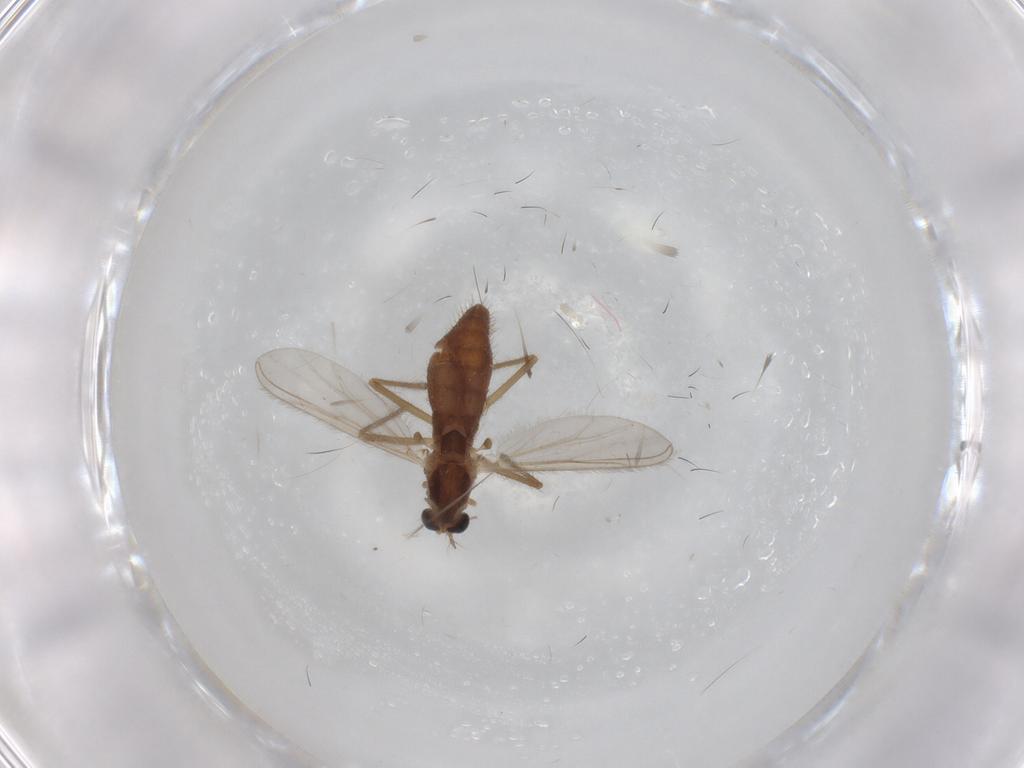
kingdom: Animalia
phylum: Arthropoda
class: Insecta
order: Diptera
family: Chironomidae
